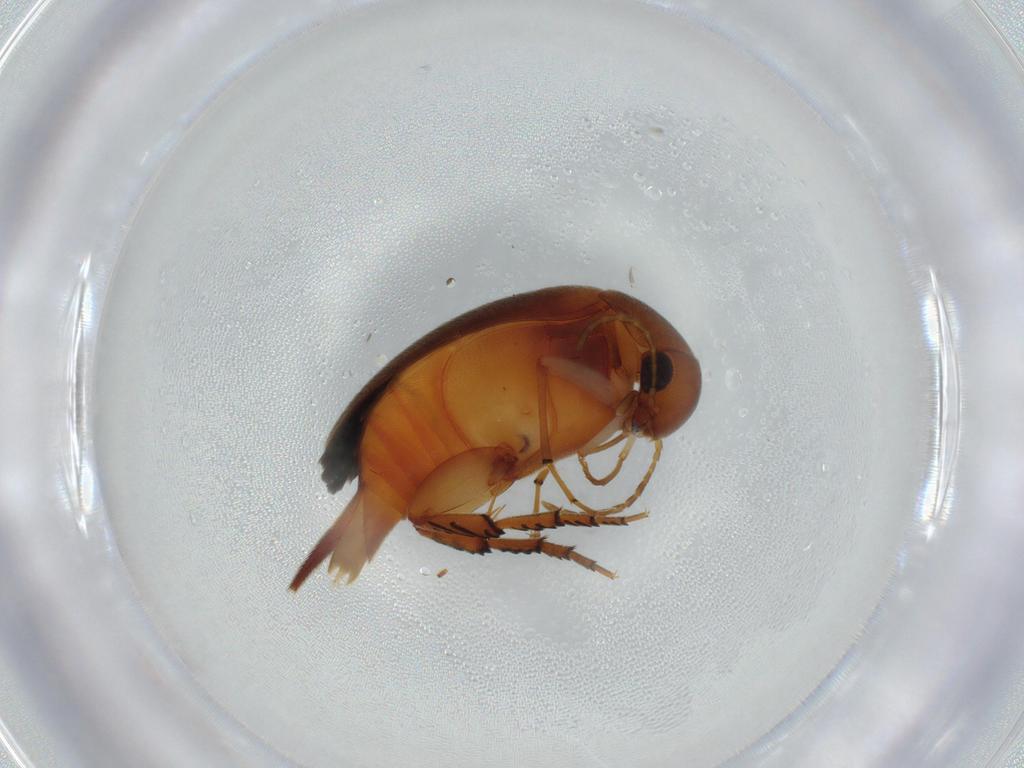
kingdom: Animalia
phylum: Arthropoda
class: Insecta
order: Coleoptera
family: Mordellidae
